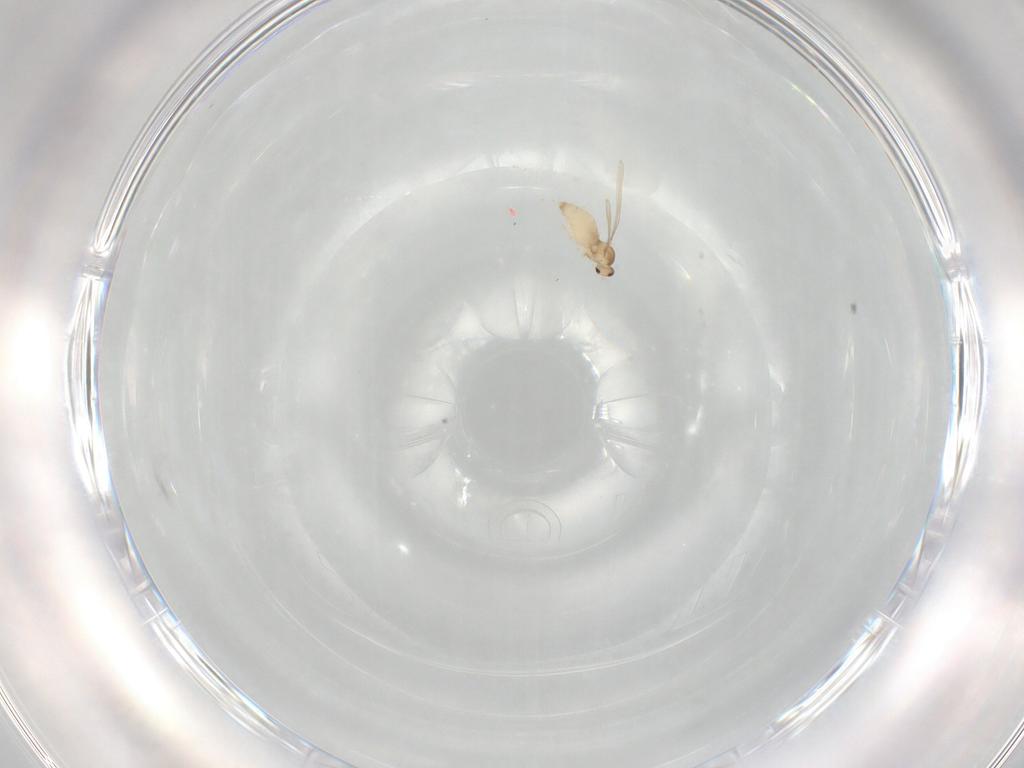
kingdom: Animalia
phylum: Arthropoda
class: Insecta
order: Diptera
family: Cecidomyiidae
